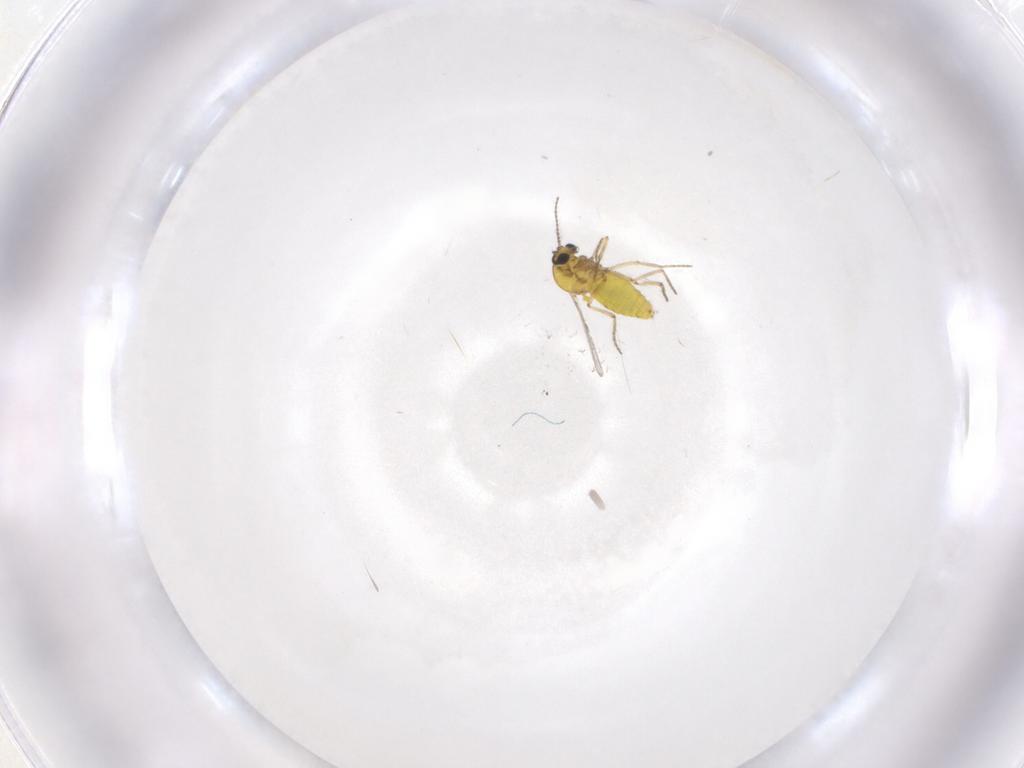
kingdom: Animalia
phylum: Arthropoda
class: Insecta
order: Diptera
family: Ceratopogonidae
